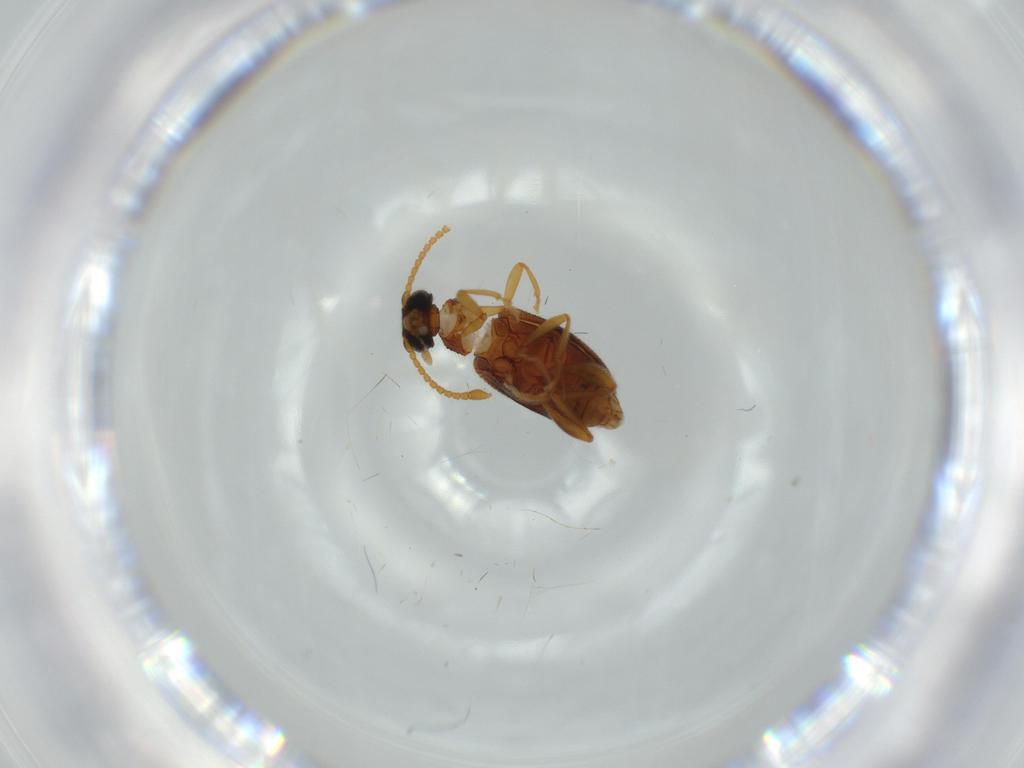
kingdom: Animalia
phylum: Arthropoda
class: Insecta
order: Coleoptera
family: Aderidae
